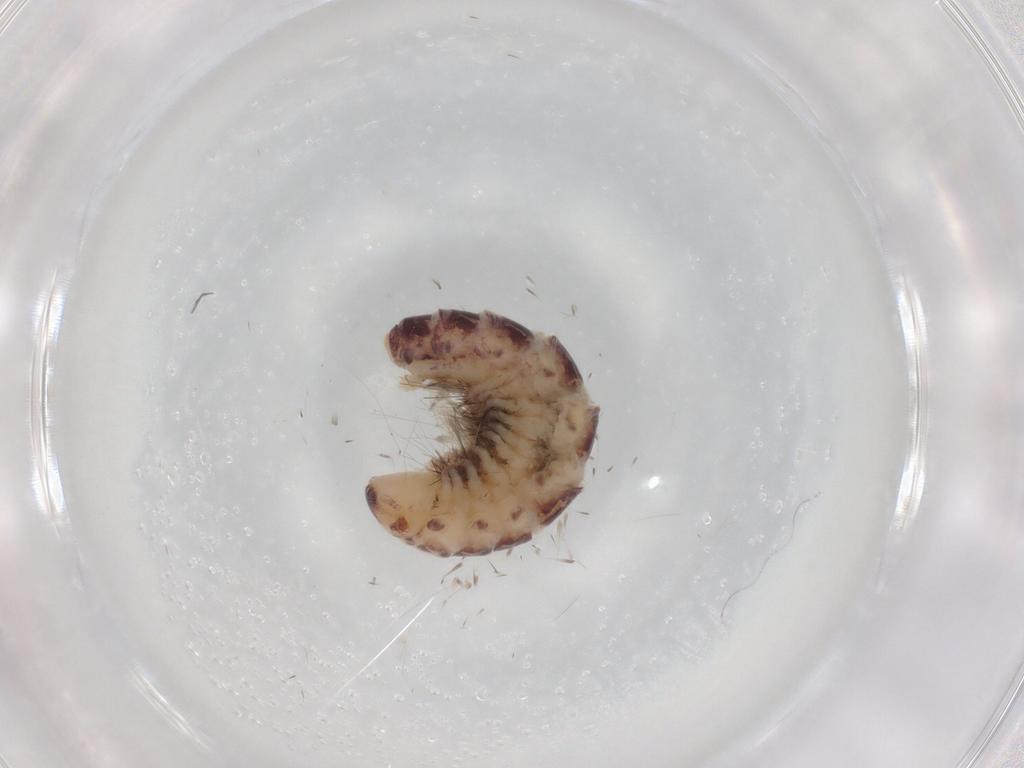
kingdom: Animalia
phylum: Arthropoda
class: Diplopoda
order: Polyxenida
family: Polyxenidae
